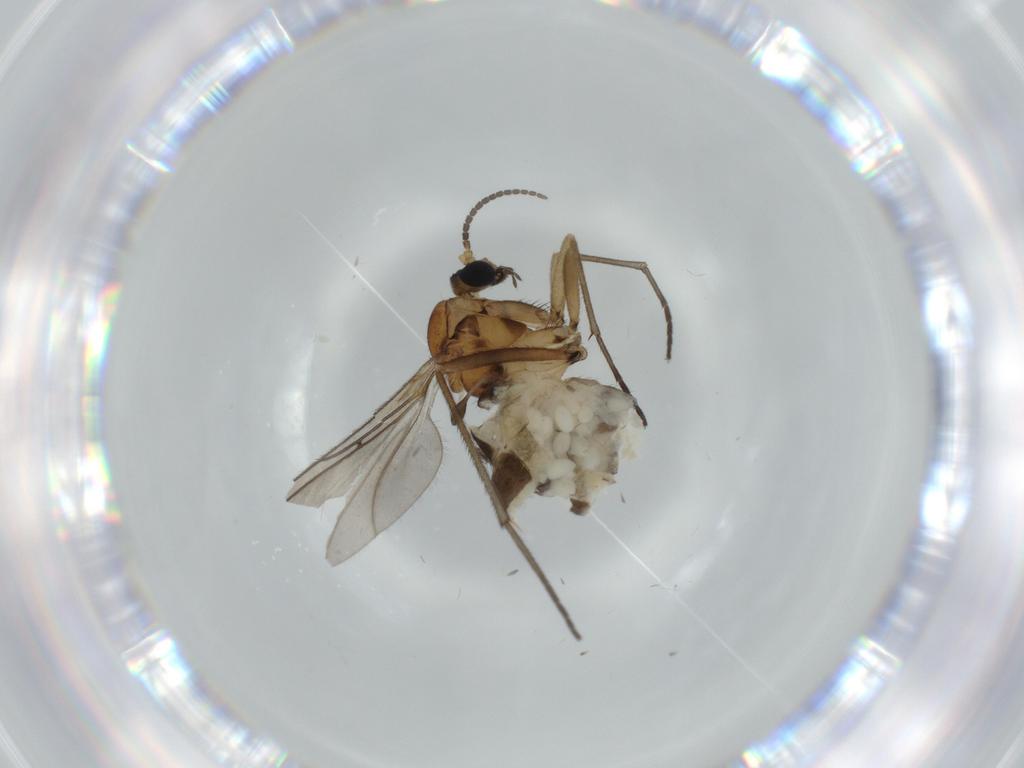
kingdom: Animalia
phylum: Arthropoda
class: Insecta
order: Diptera
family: Sciaridae
